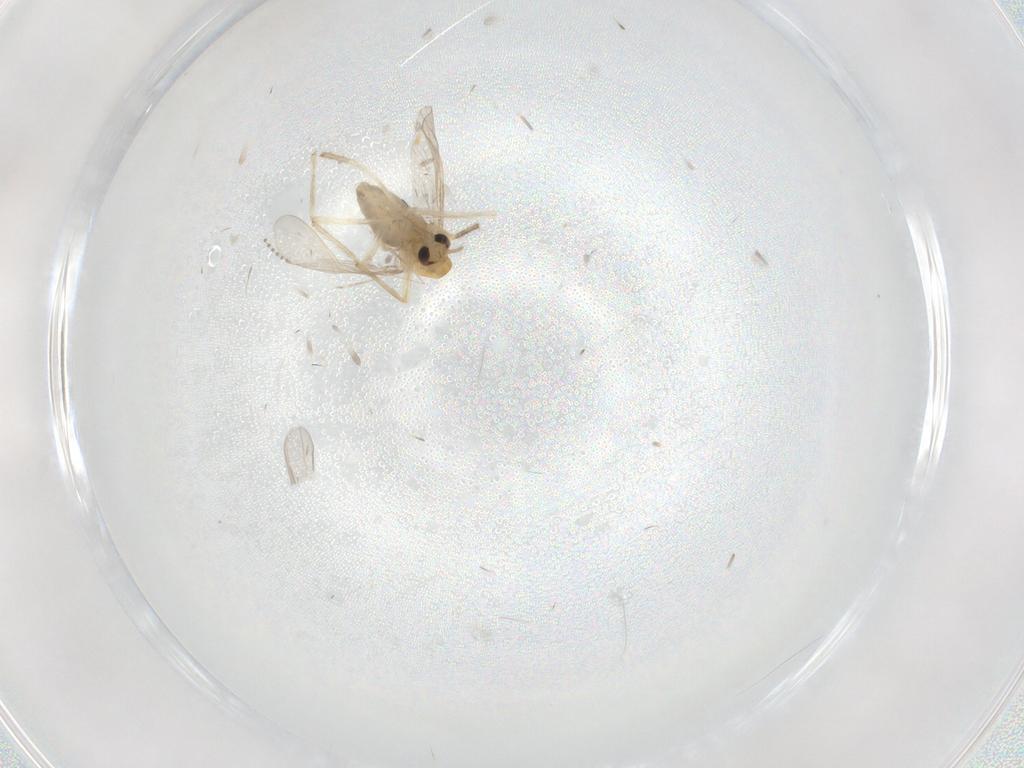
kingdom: Animalia
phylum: Arthropoda
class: Insecta
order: Diptera
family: Chironomidae
